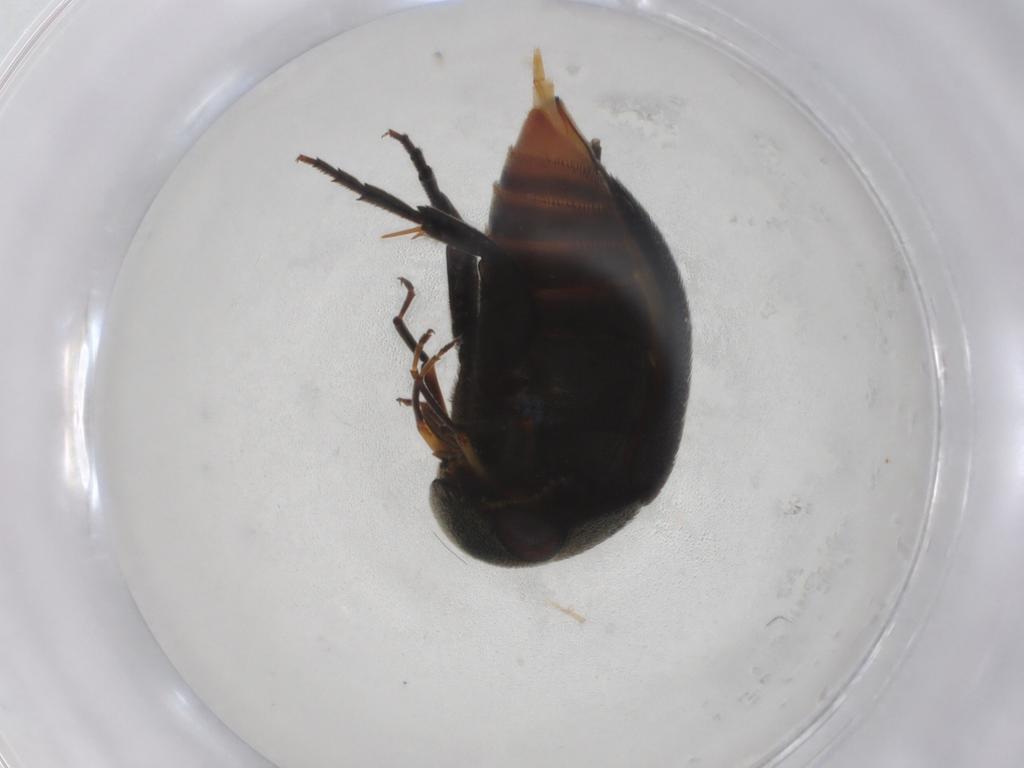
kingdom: Animalia
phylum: Arthropoda
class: Insecta
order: Coleoptera
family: Mordellidae
